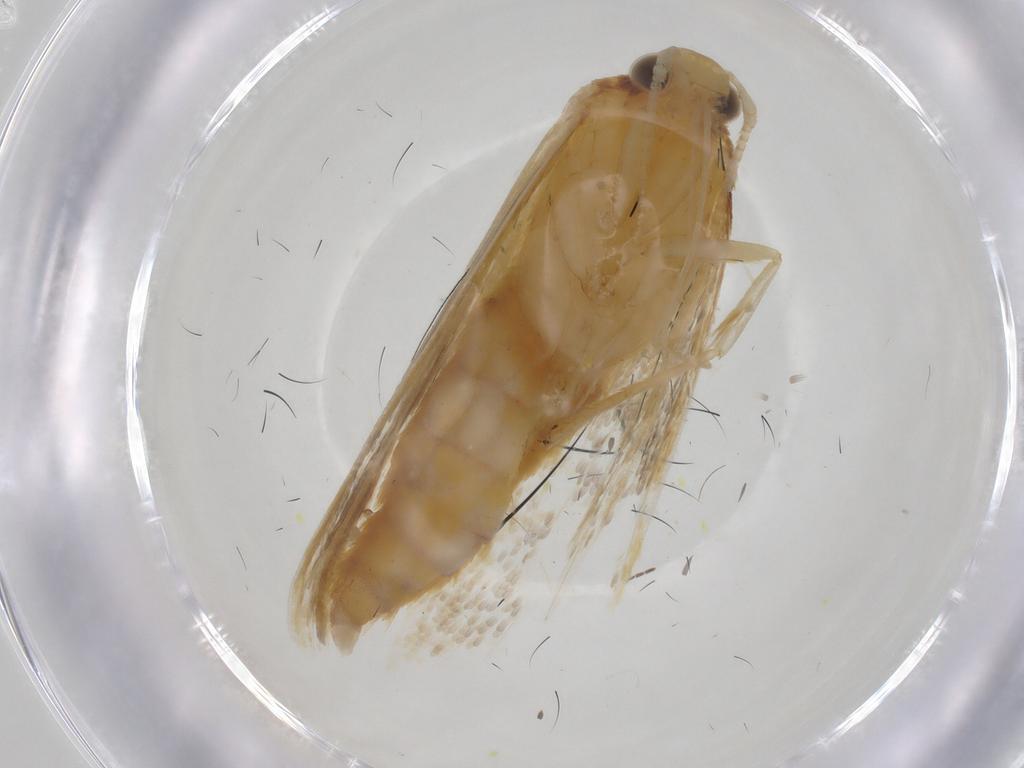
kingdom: Animalia
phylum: Arthropoda
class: Insecta
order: Lepidoptera
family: Lecithoceridae
